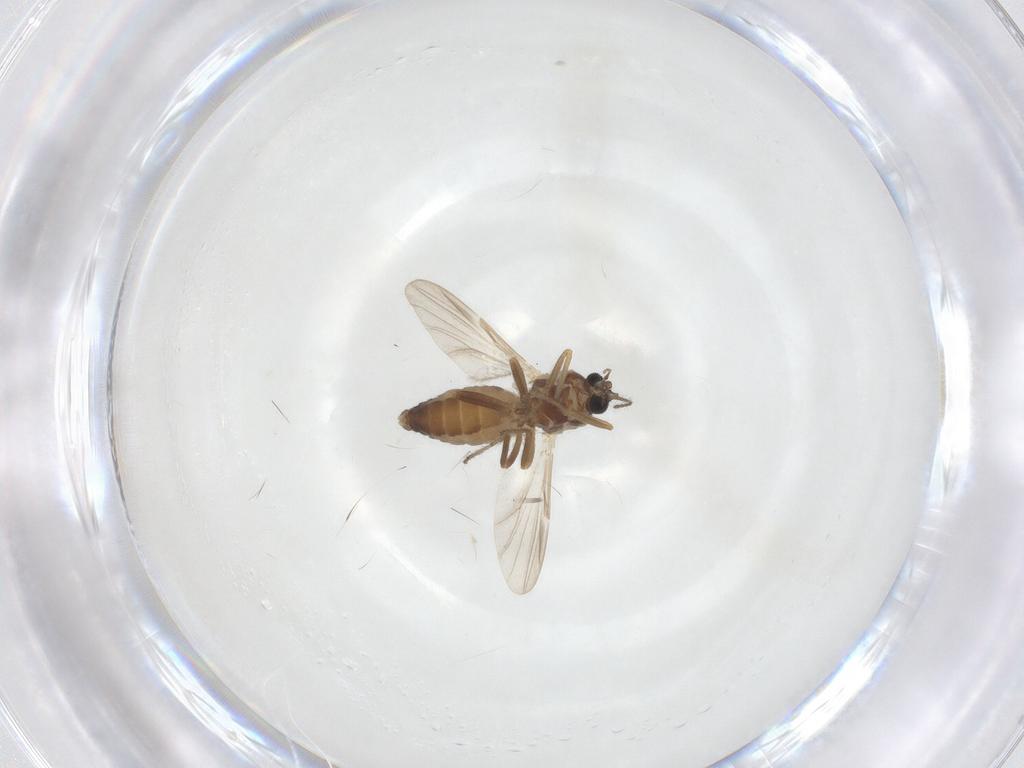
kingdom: Animalia
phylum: Arthropoda
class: Insecta
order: Diptera
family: Ceratopogonidae
